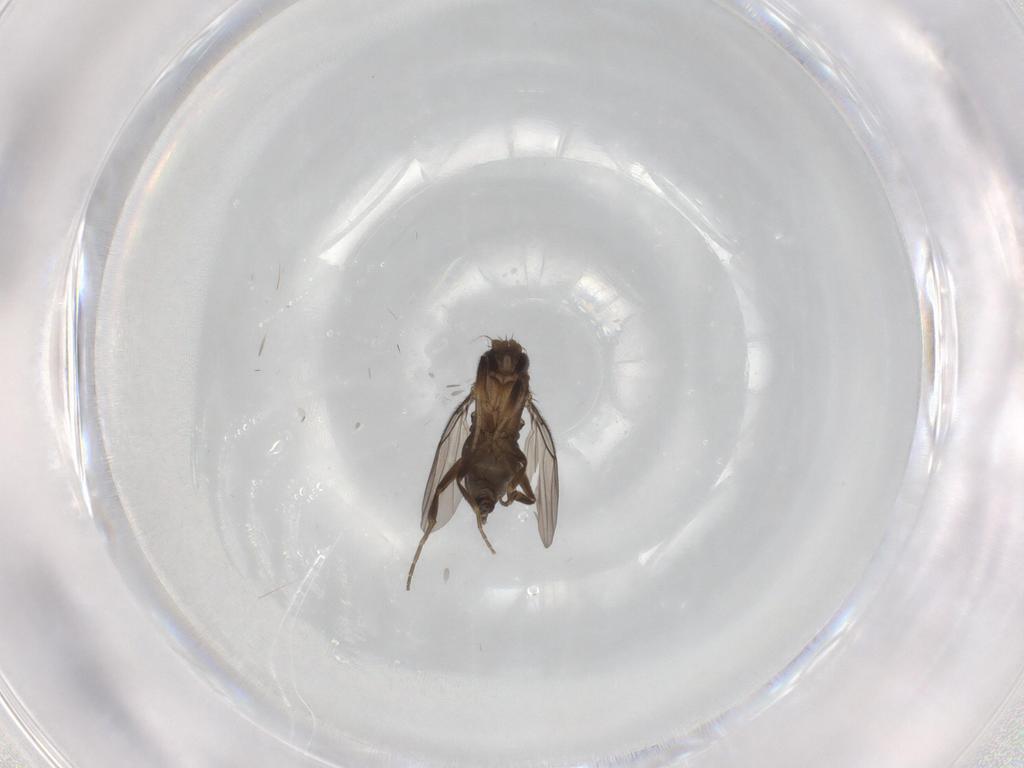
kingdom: Animalia
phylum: Arthropoda
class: Insecta
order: Diptera
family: Phoridae
